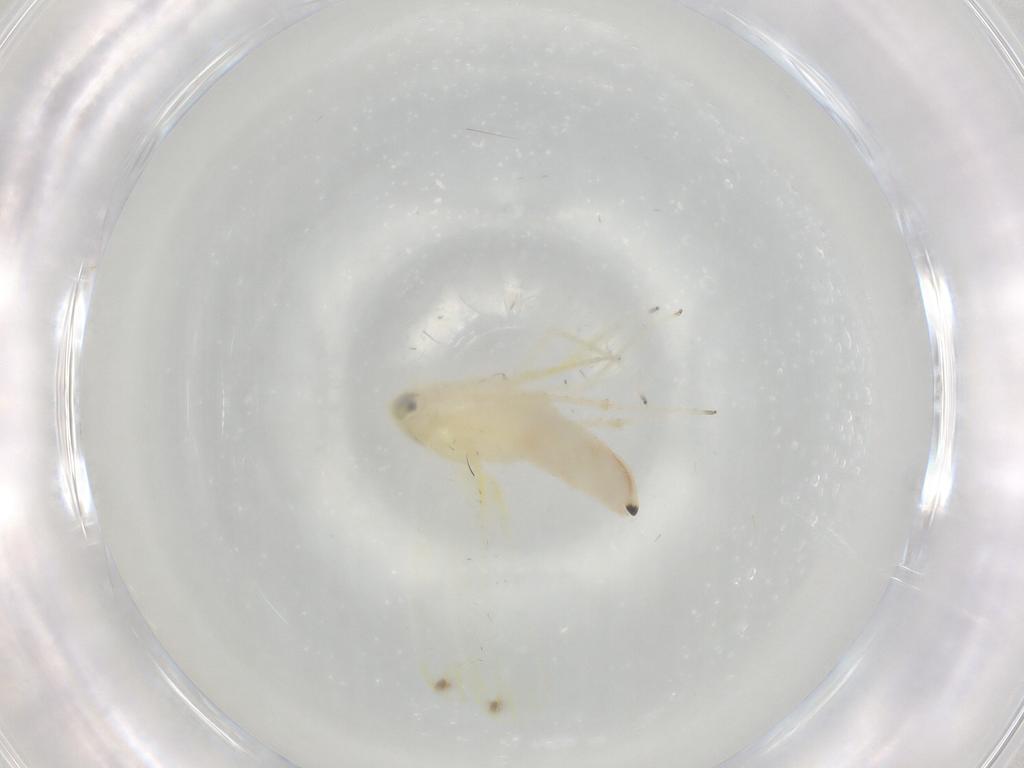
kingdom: Animalia
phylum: Arthropoda
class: Insecta
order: Hemiptera
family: Cicadellidae
